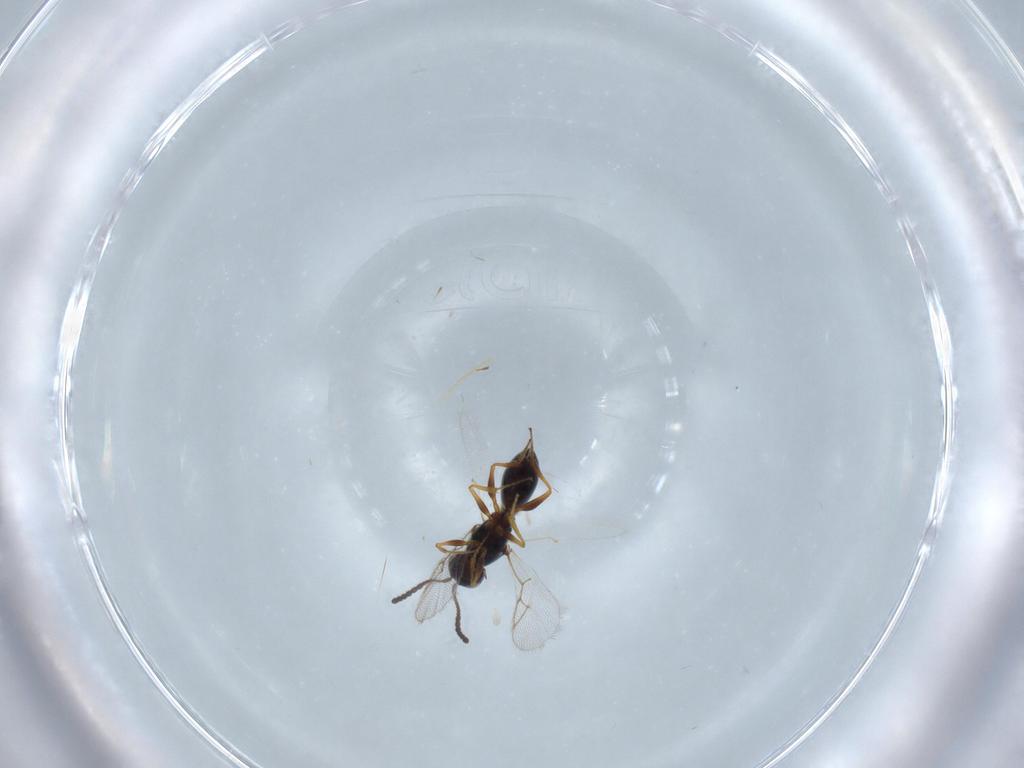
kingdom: Animalia
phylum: Arthropoda
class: Insecta
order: Hymenoptera
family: Figitidae
